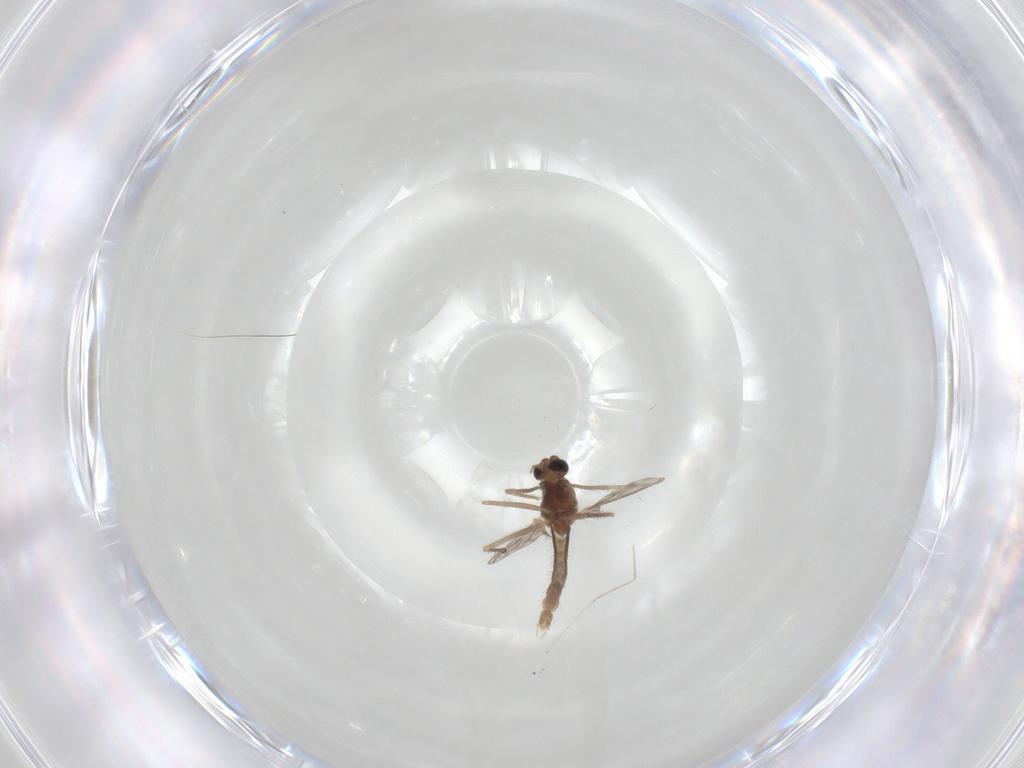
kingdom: Animalia
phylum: Arthropoda
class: Insecta
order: Diptera
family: Chironomidae
